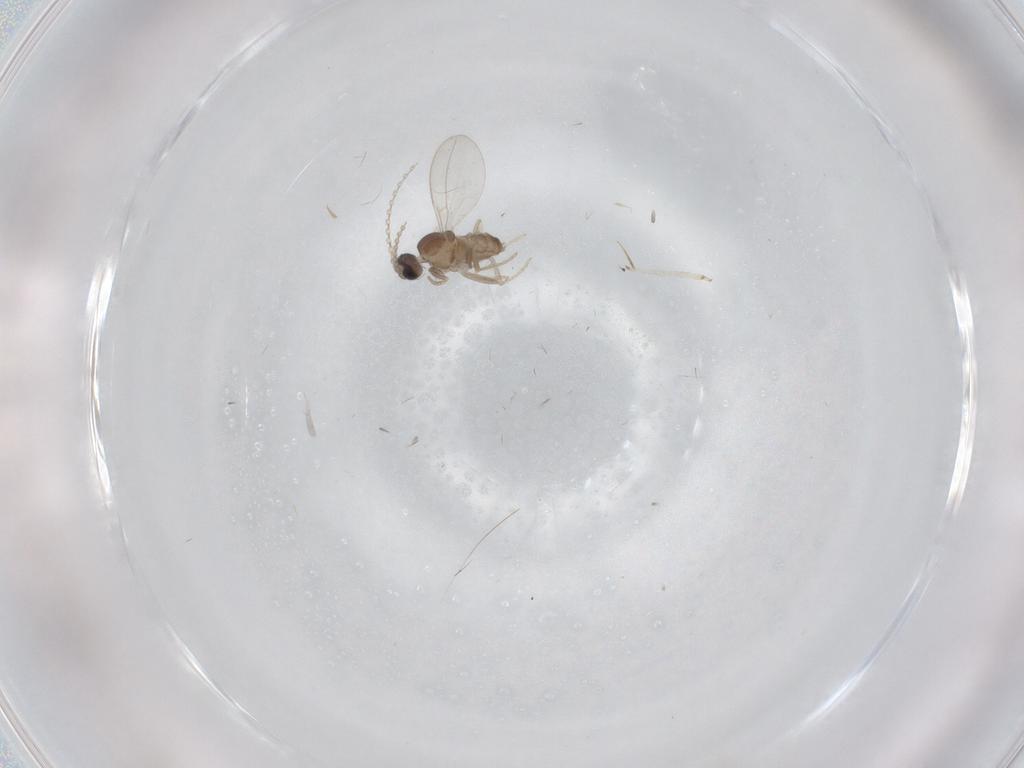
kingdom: Animalia
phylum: Arthropoda
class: Insecta
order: Diptera
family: Cecidomyiidae
